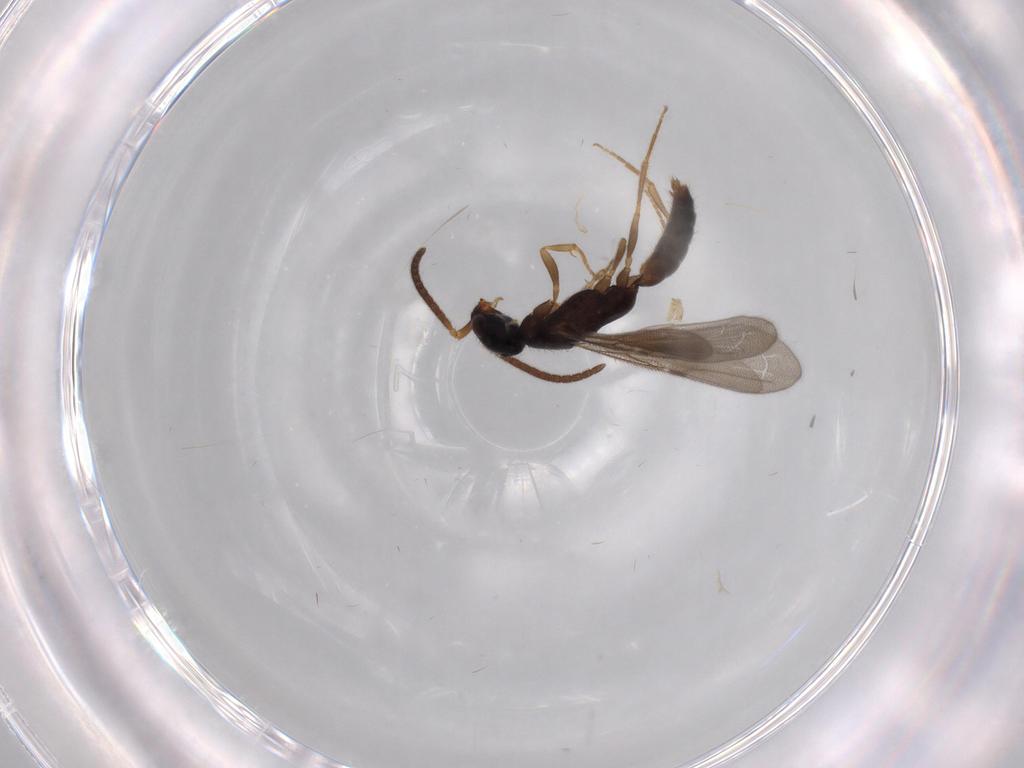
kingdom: Animalia
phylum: Arthropoda
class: Insecta
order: Hymenoptera
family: Bethylidae
